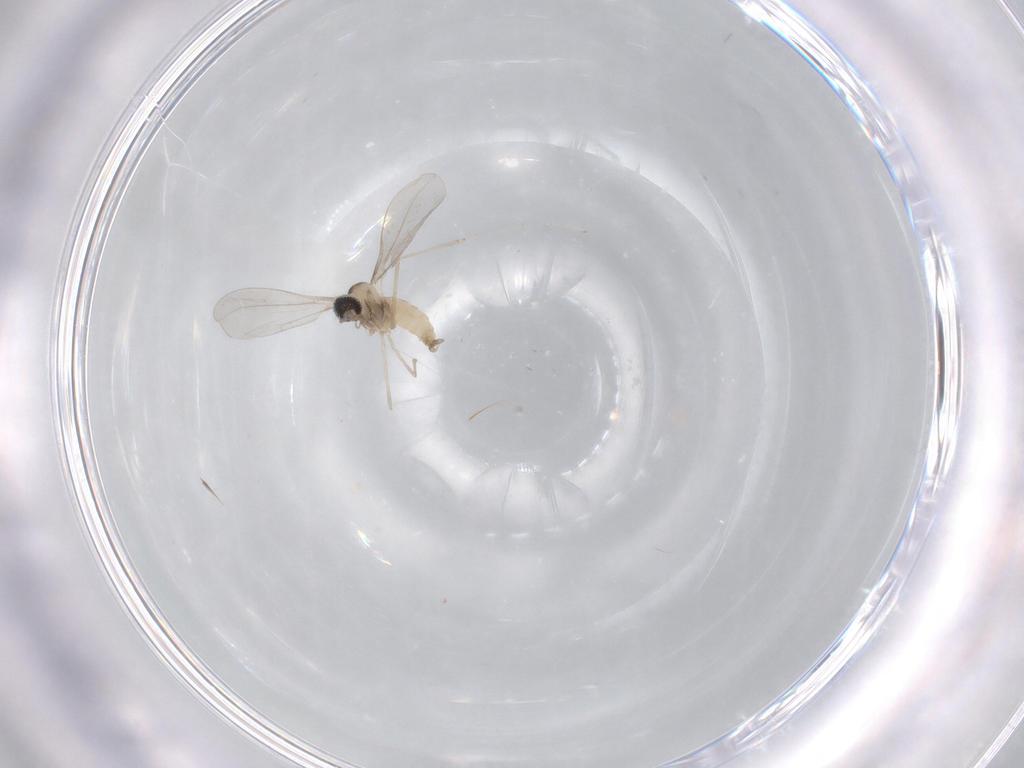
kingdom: Animalia
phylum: Arthropoda
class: Insecta
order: Diptera
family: Sciaridae
